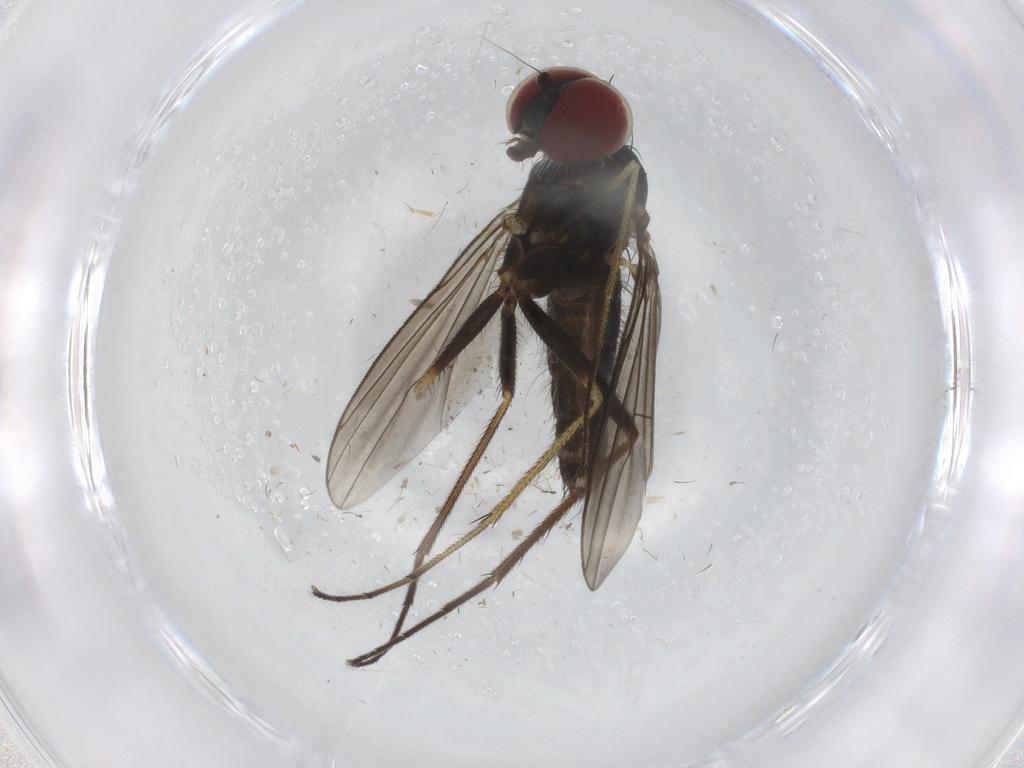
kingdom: Animalia
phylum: Arthropoda
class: Insecta
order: Diptera
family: Dolichopodidae
